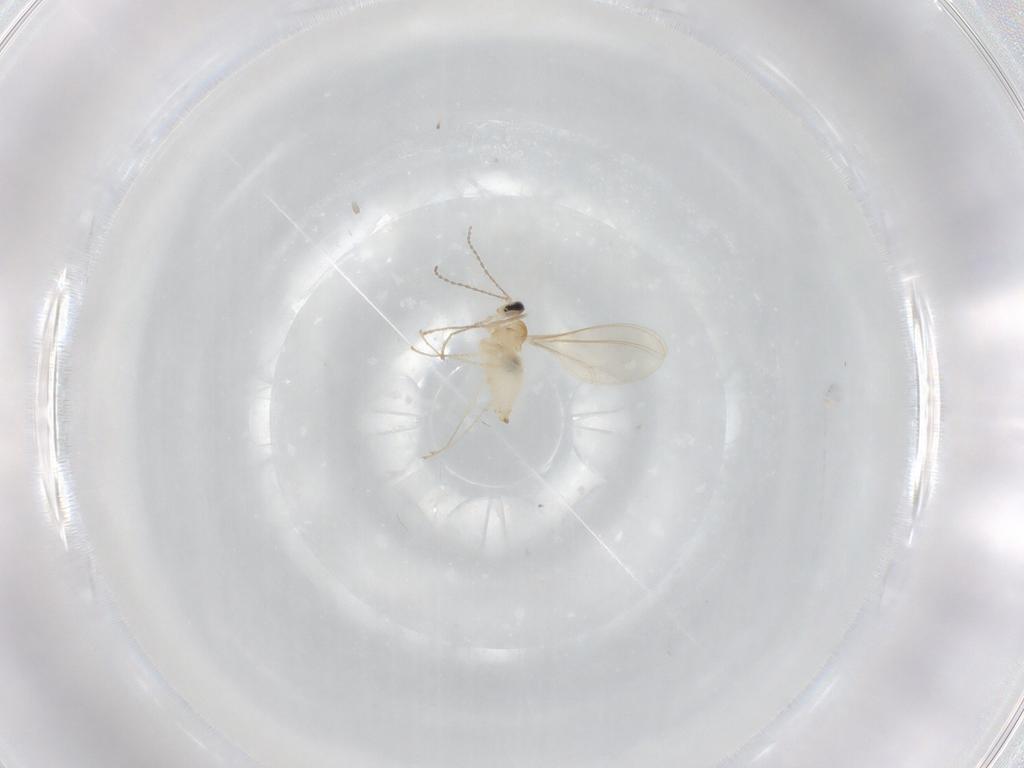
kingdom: Animalia
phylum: Arthropoda
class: Insecta
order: Diptera
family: Cecidomyiidae
